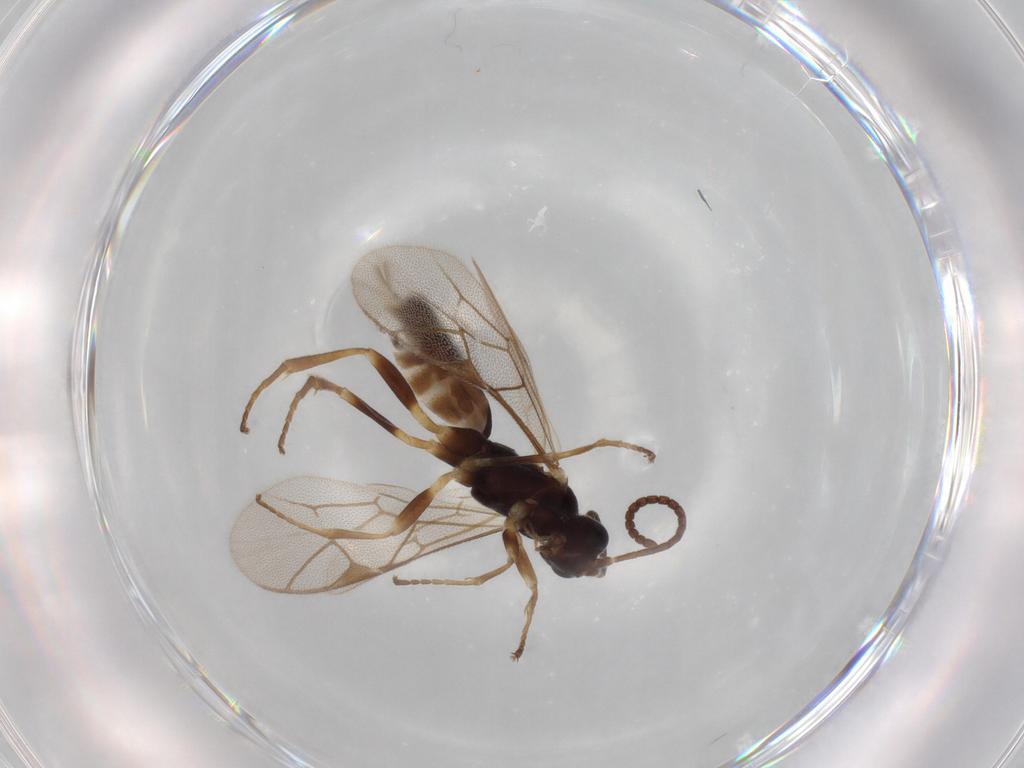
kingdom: Animalia
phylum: Arthropoda
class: Insecta
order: Hymenoptera
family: Ichneumonidae
